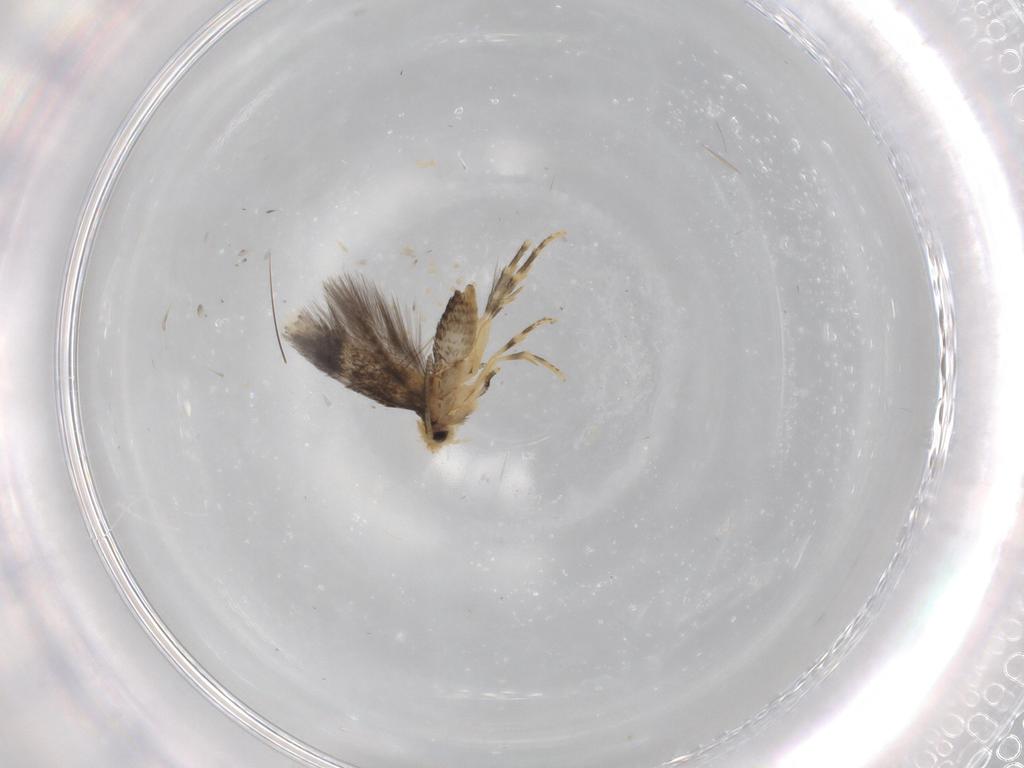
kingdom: Animalia
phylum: Arthropoda
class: Insecta
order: Lepidoptera
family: Nepticulidae
